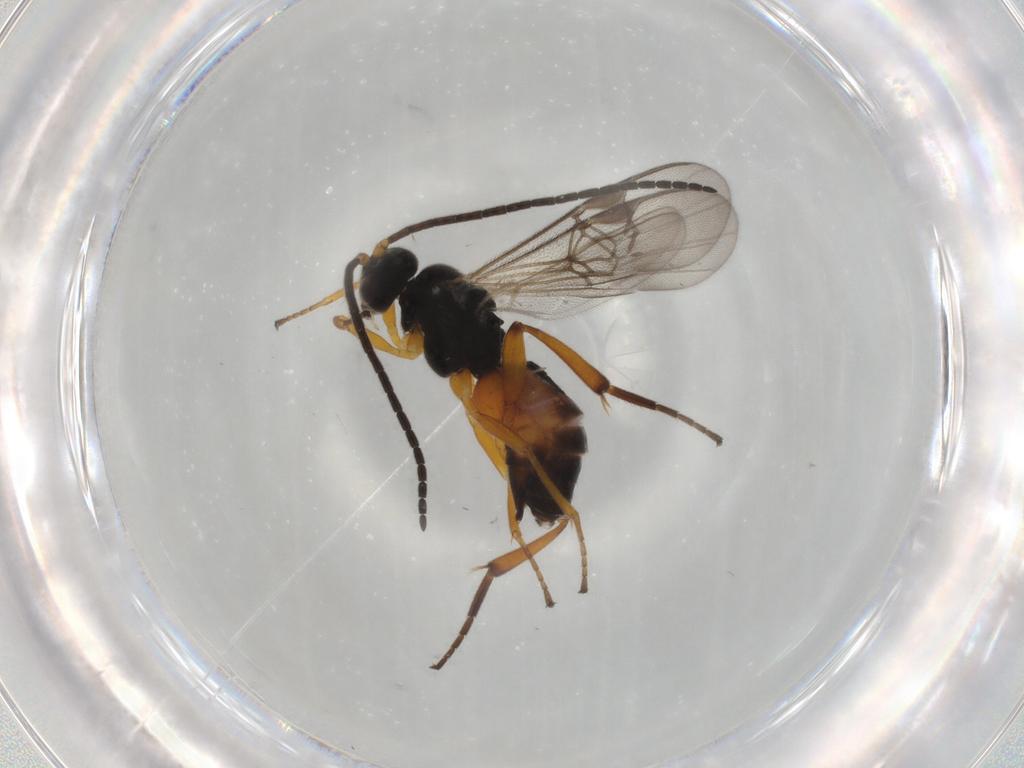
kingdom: Animalia
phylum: Arthropoda
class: Insecta
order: Hymenoptera
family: Braconidae
